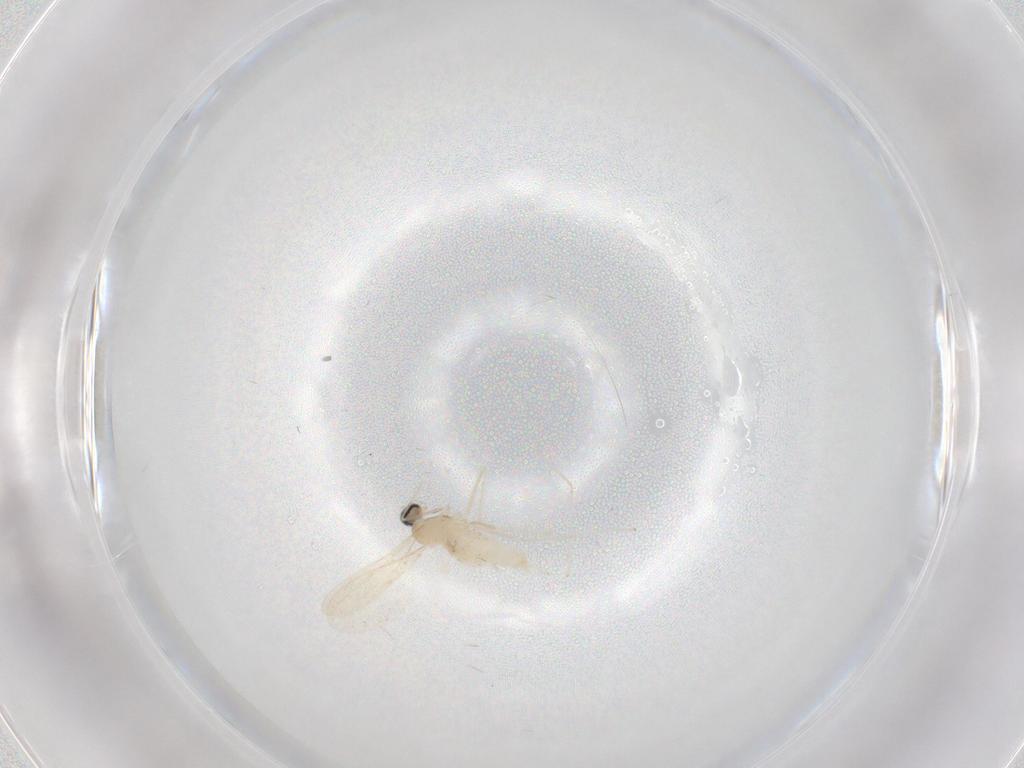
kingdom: Animalia
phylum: Arthropoda
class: Insecta
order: Diptera
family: Cecidomyiidae
